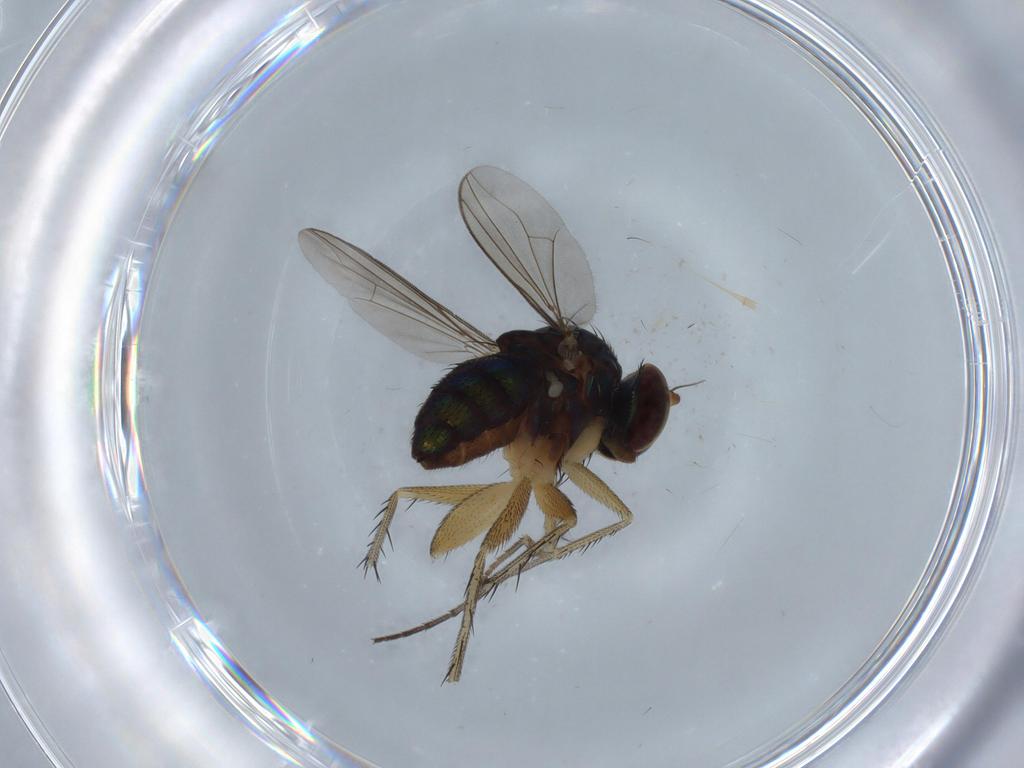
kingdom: Animalia
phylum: Arthropoda
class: Insecta
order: Diptera
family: Dolichopodidae
